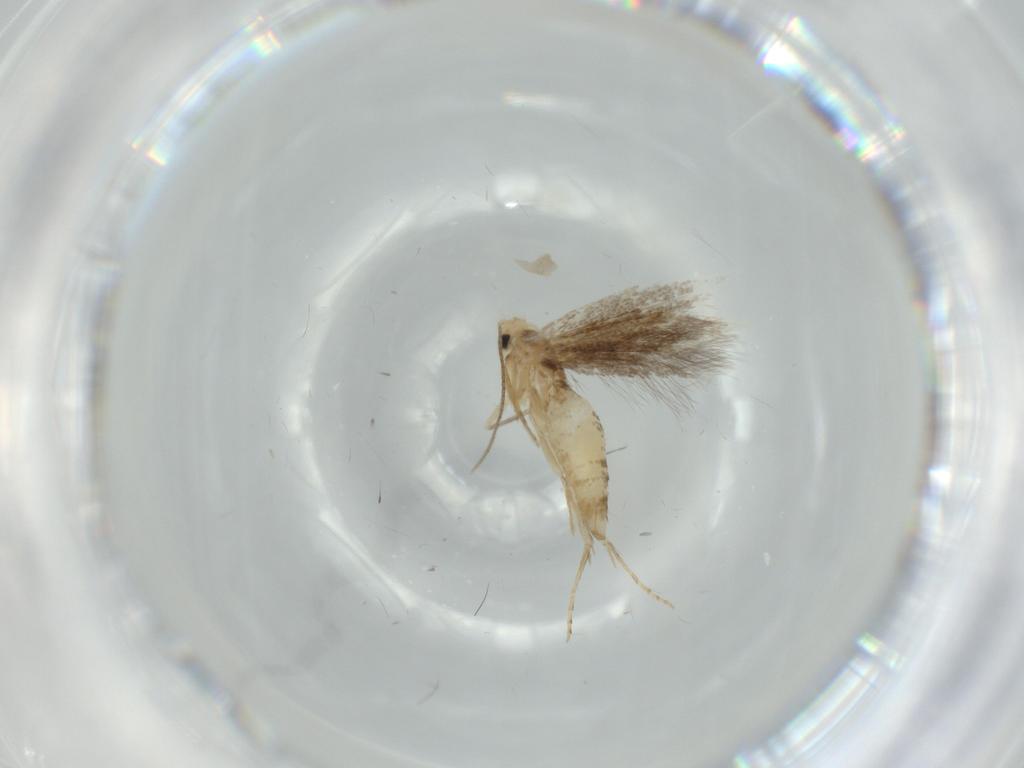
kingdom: Animalia
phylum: Arthropoda
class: Insecta
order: Lepidoptera
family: Bucculatricidae
